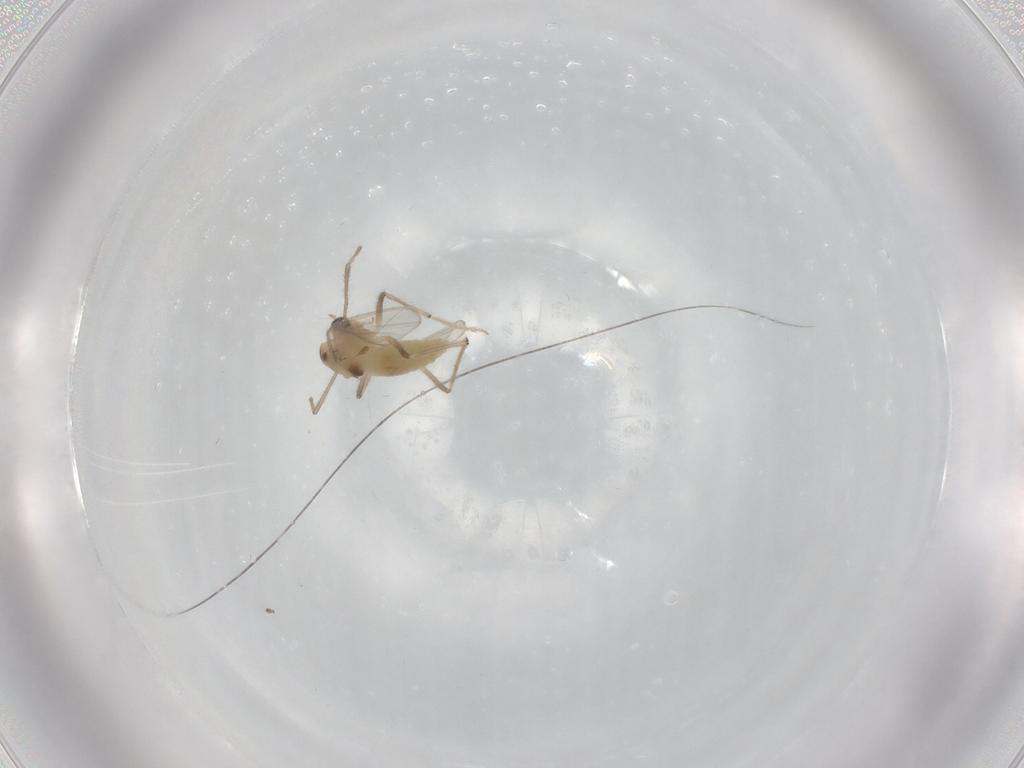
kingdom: Animalia
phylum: Arthropoda
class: Insecta
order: Diptera
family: Chironomidae
